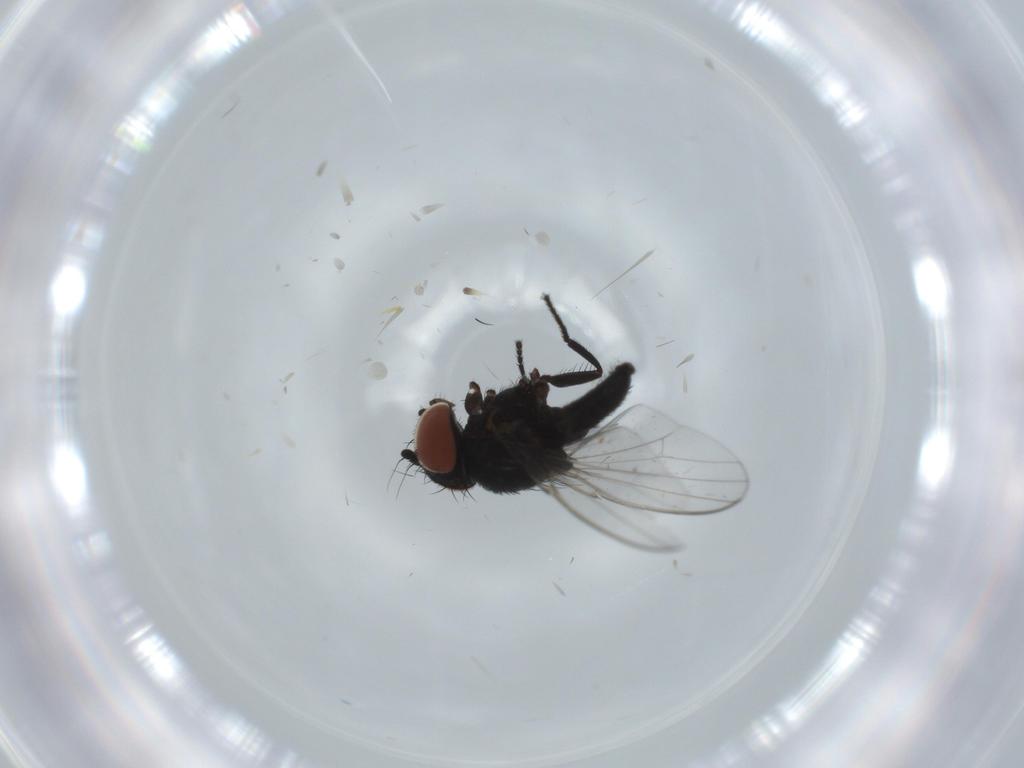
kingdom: Animalia
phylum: Arthropoda
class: Insecta
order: Diptera
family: Milichiidae
